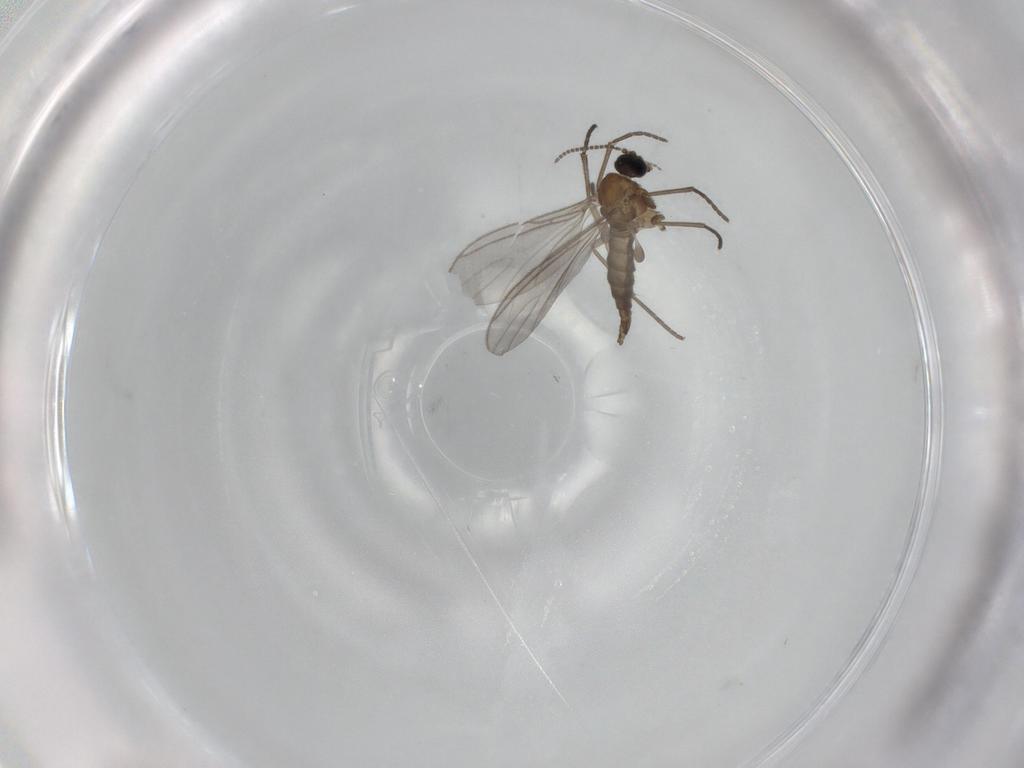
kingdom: Animalia
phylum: Arthropoda
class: Insecta
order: Diptera
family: Sciaridae
